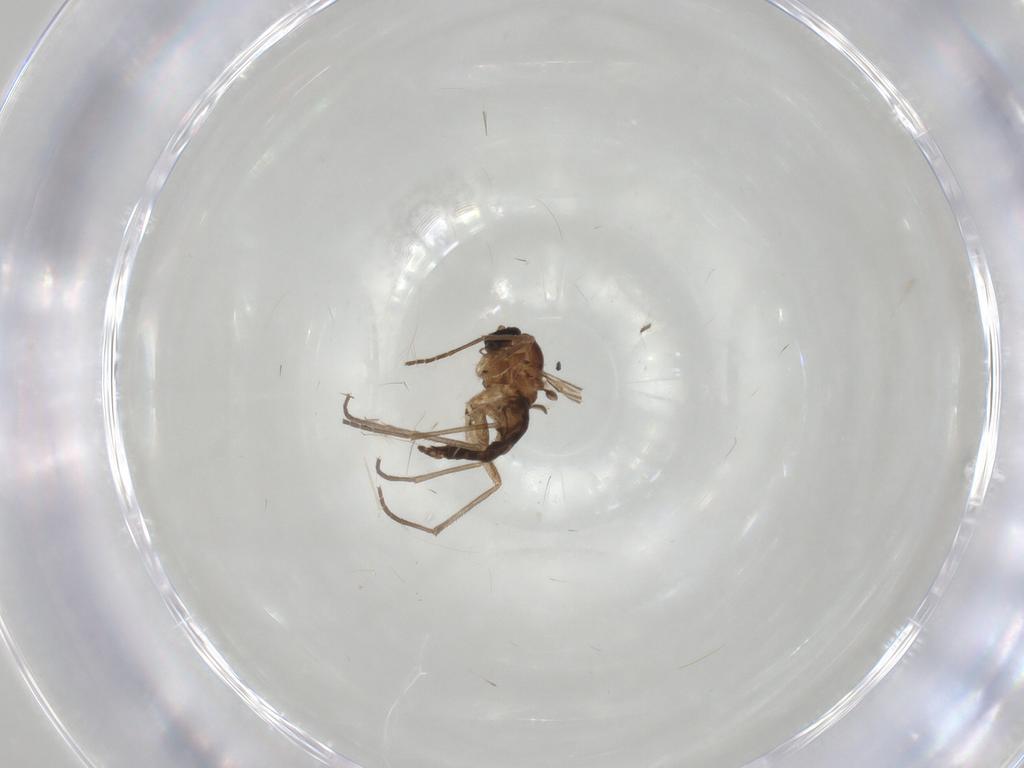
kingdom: Animalia
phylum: Arthropoda
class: Insecta
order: Diptera
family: Sciaridae
